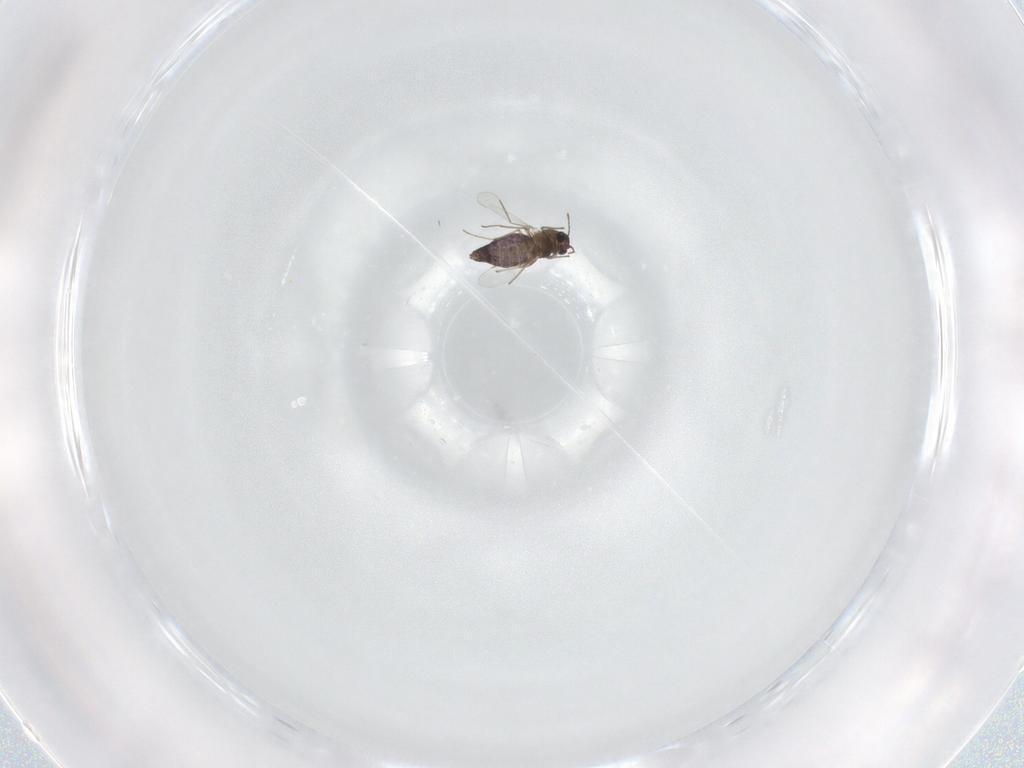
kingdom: Animalia
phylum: Arthropoda
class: Insecta
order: Diptera
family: Chironomidae
